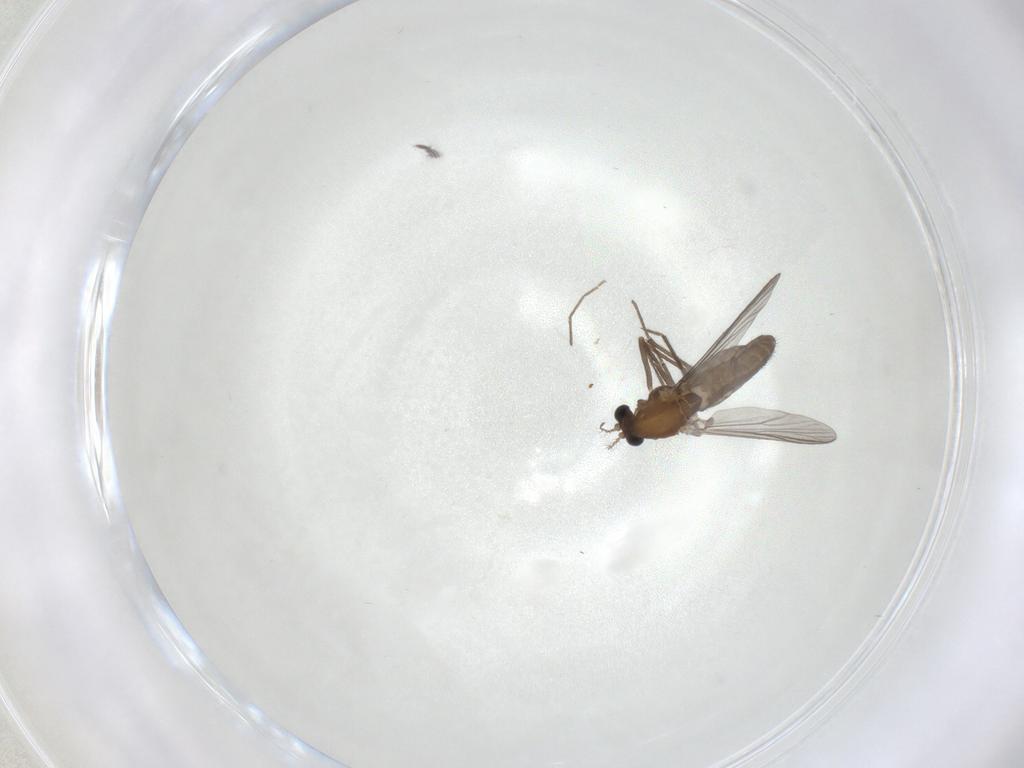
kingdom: Animalia
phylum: Arthropoda
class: Insecta
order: Diptera
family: Chironomidae
